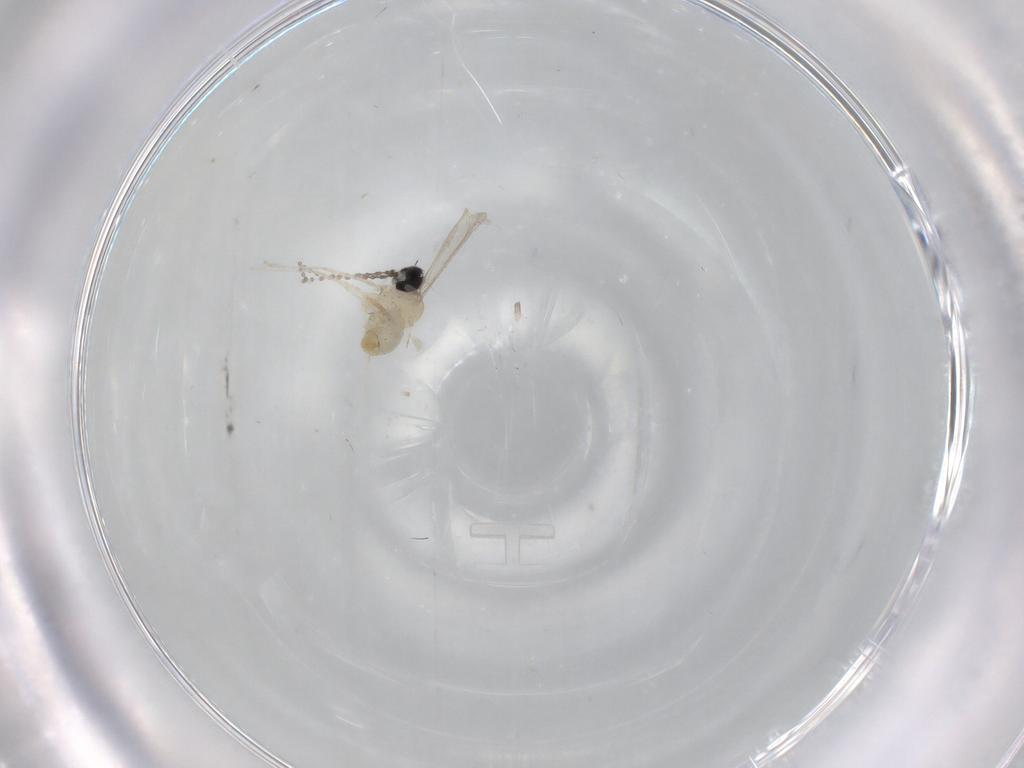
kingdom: Animalia
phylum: Arthropoda
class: Insecta
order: Diptera
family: Cecidomyiidae
